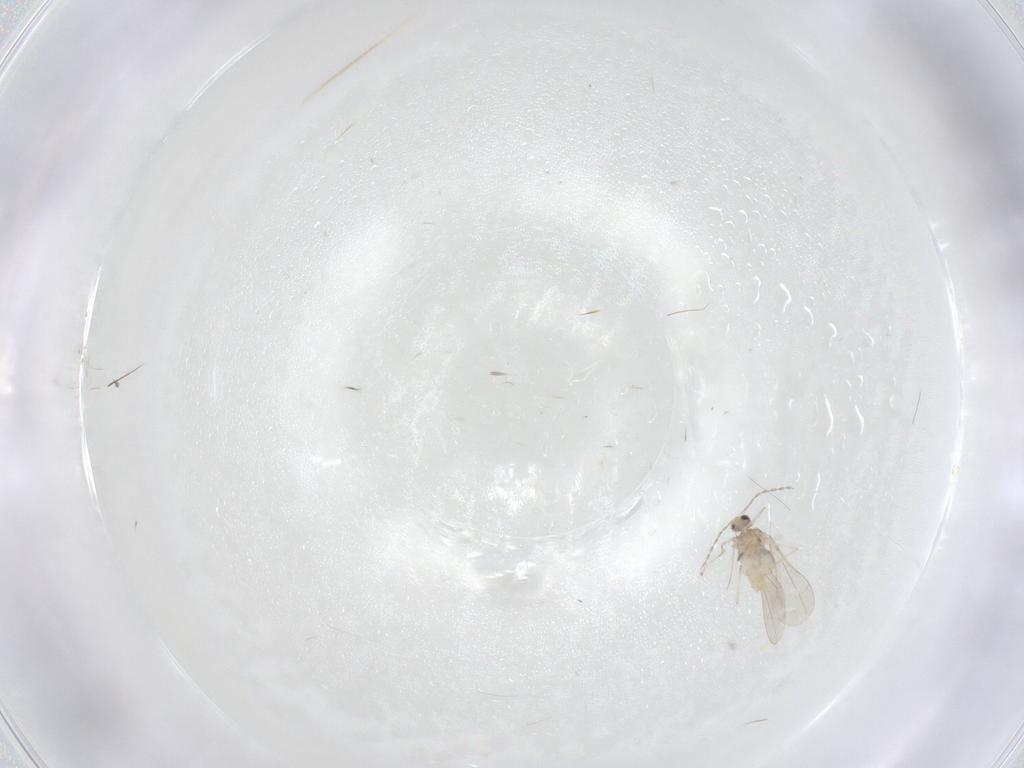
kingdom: Animalia
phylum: Arthropoda
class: Insecta
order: Diptera
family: Cecidomyiidae
